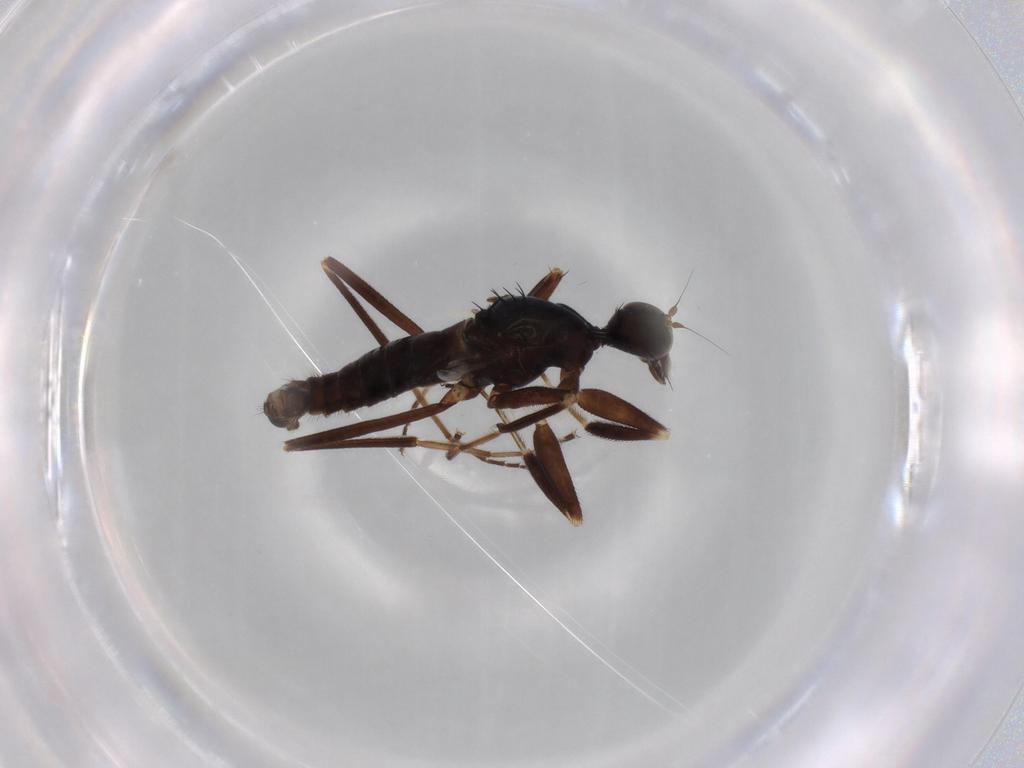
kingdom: Animalia
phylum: Arthropoda
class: Insecta
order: Diptera
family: Hybotidae
